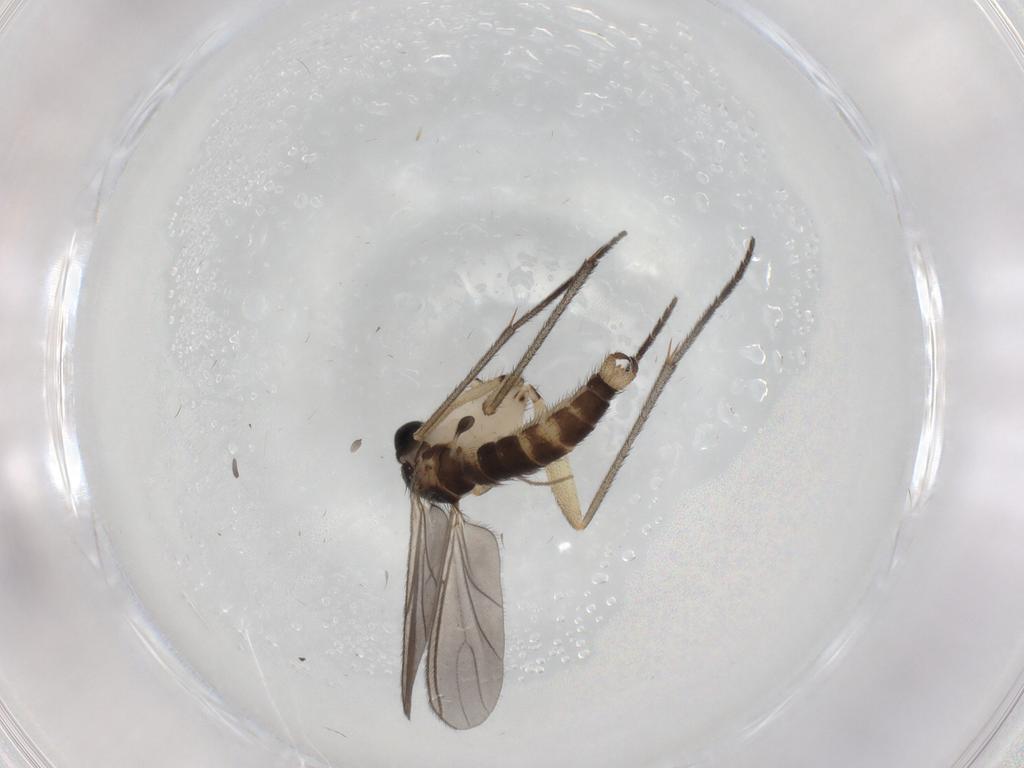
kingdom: Animalia
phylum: Arthropoda
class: Insecta
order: Diptera
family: Sciaridae
